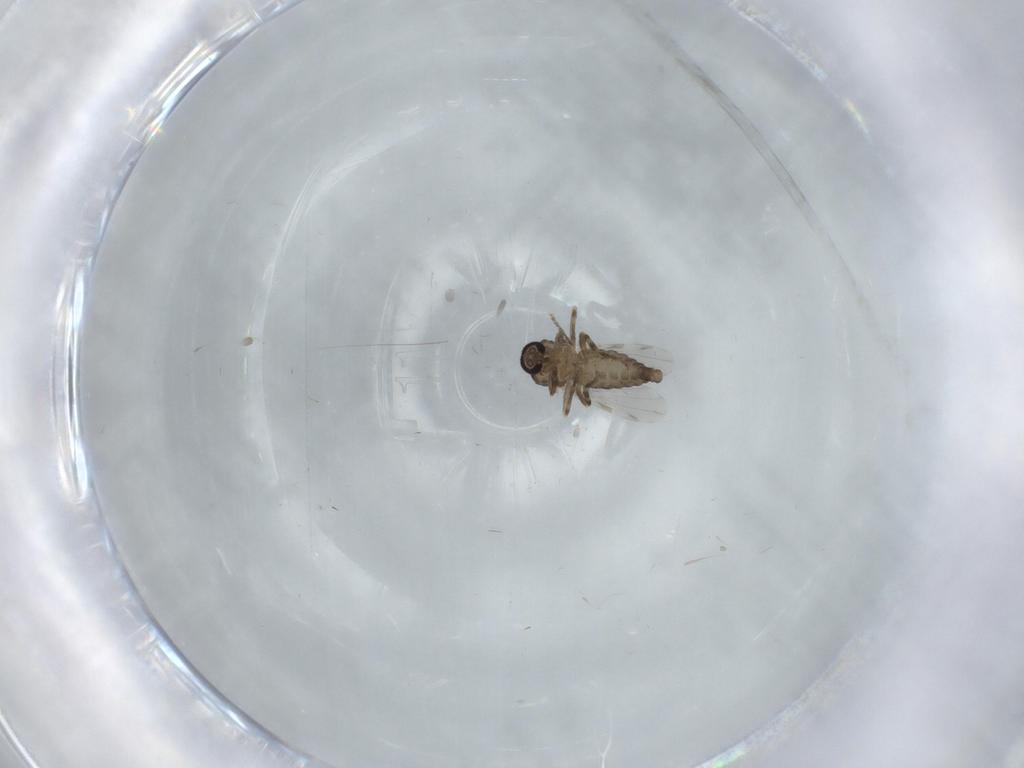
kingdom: Animalia
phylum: Arthropoda
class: Insecta
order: Diptera
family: Ceratopogonidae
